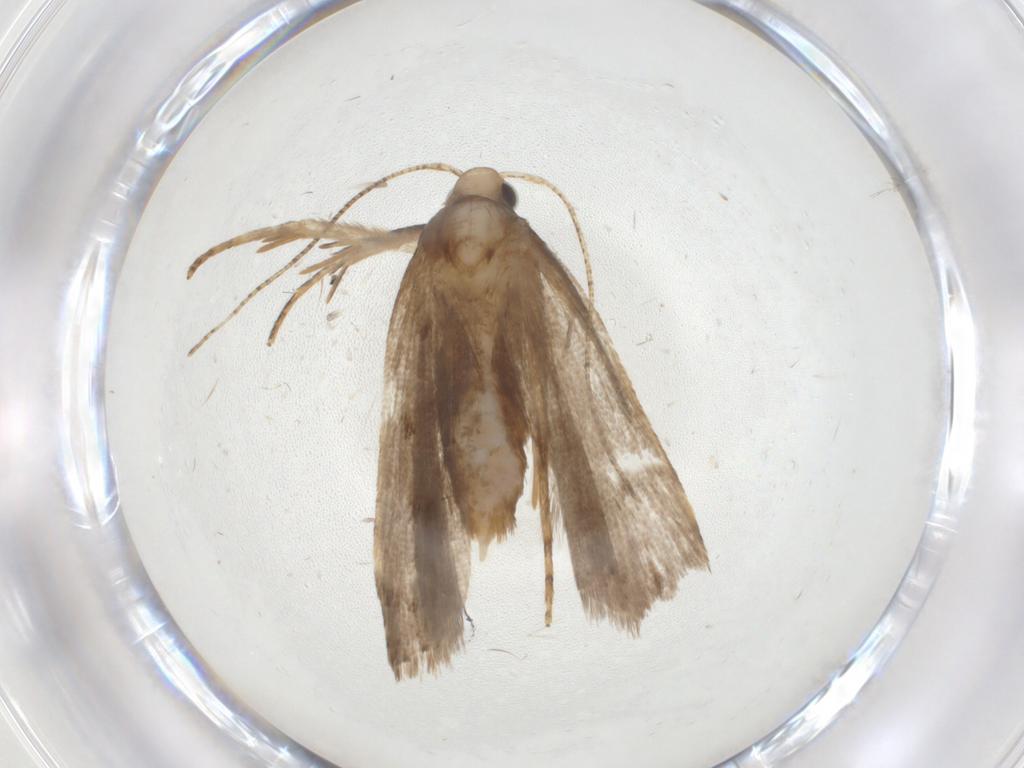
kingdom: Animalia
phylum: Arthropoda
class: Insecta
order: Lepidoptera
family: Gelechiidae
